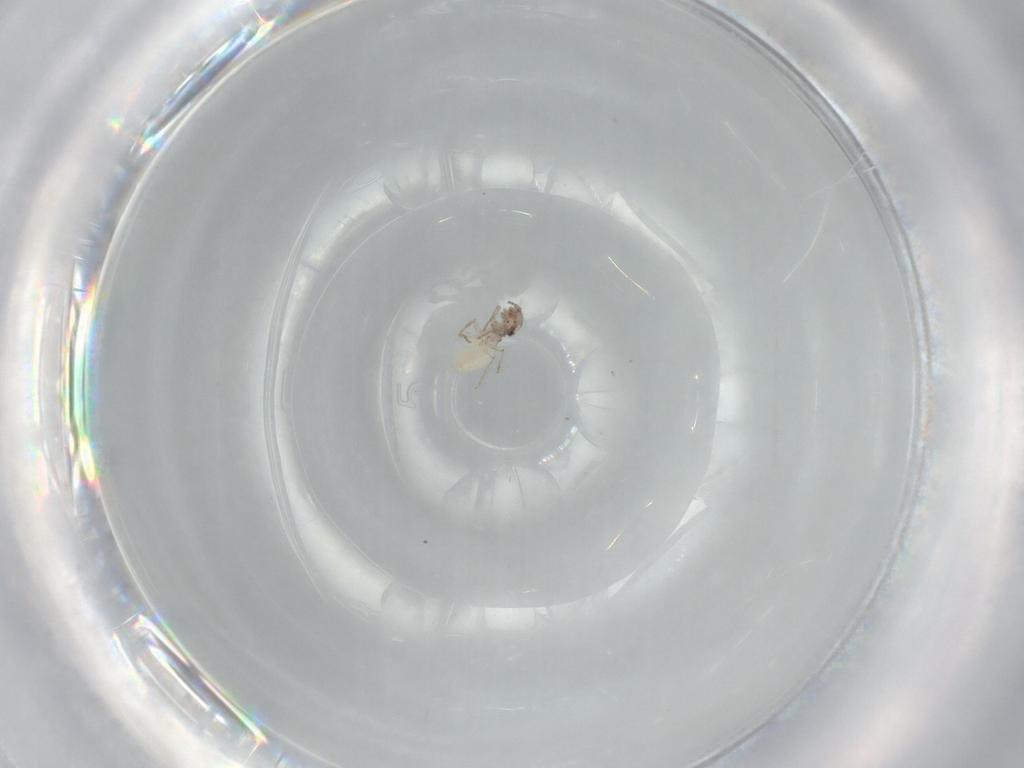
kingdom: Animalia
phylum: Arthropoda
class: Insecta
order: Psocodea
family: Lepidopsocidae
